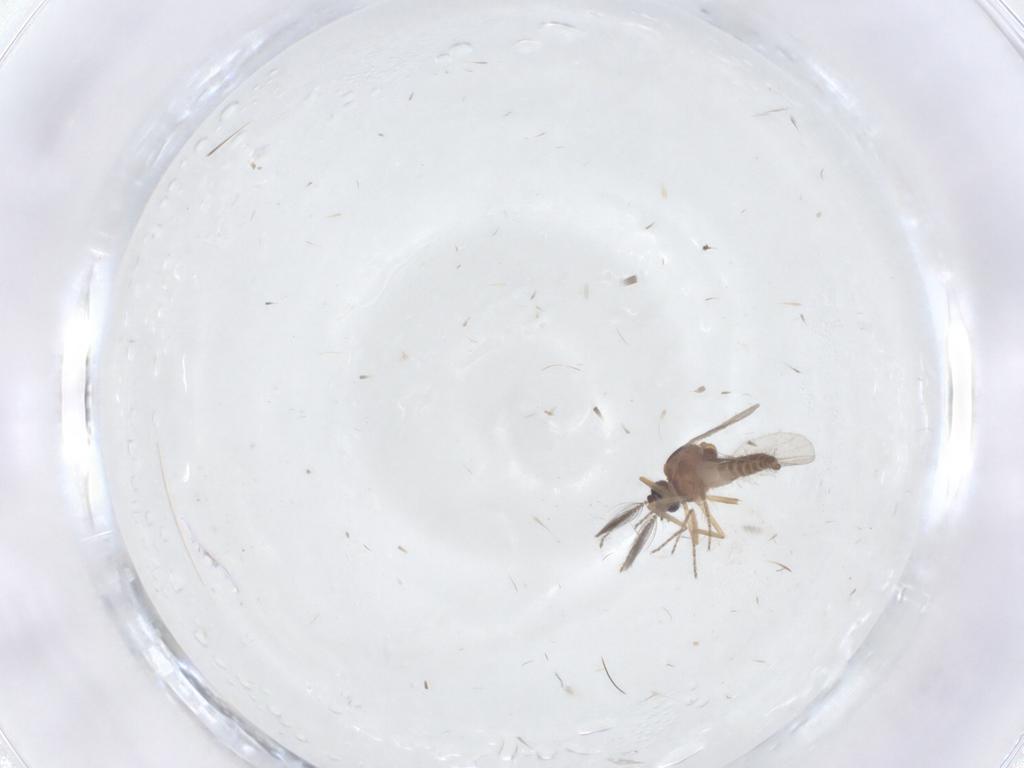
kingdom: Animalia
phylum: Arthropoda
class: Insecta
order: Diptera
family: Ceratopogonidae
